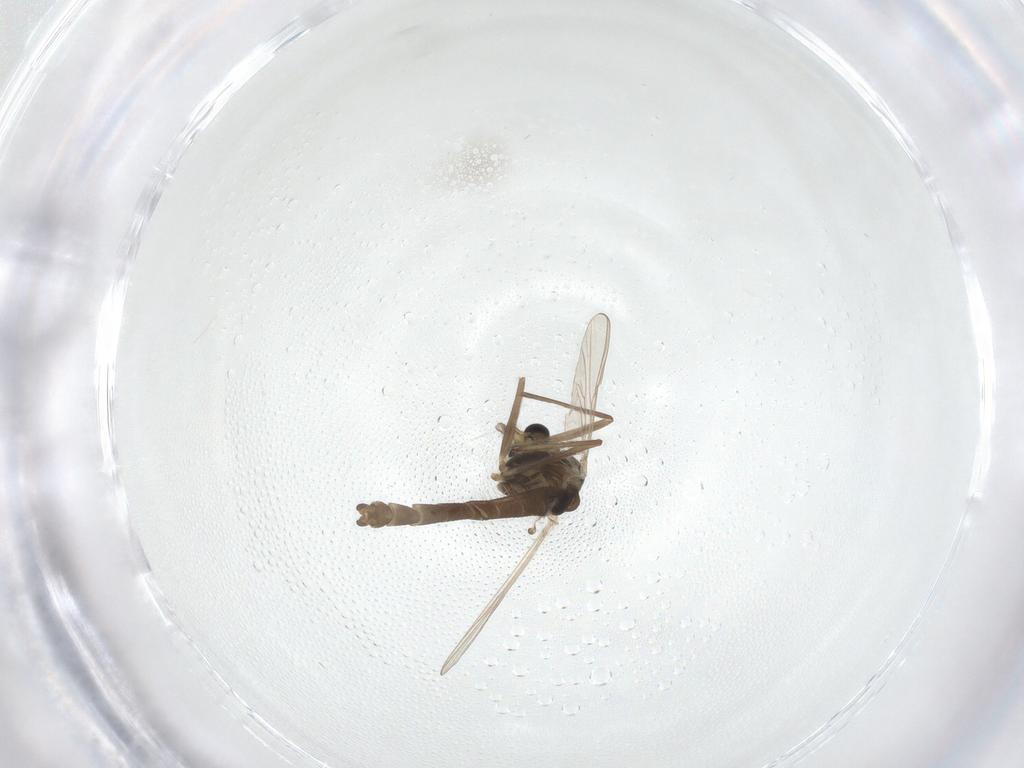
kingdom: Animalia
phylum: Arthropoda
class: Insecta
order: Diptera
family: Chironomidae
